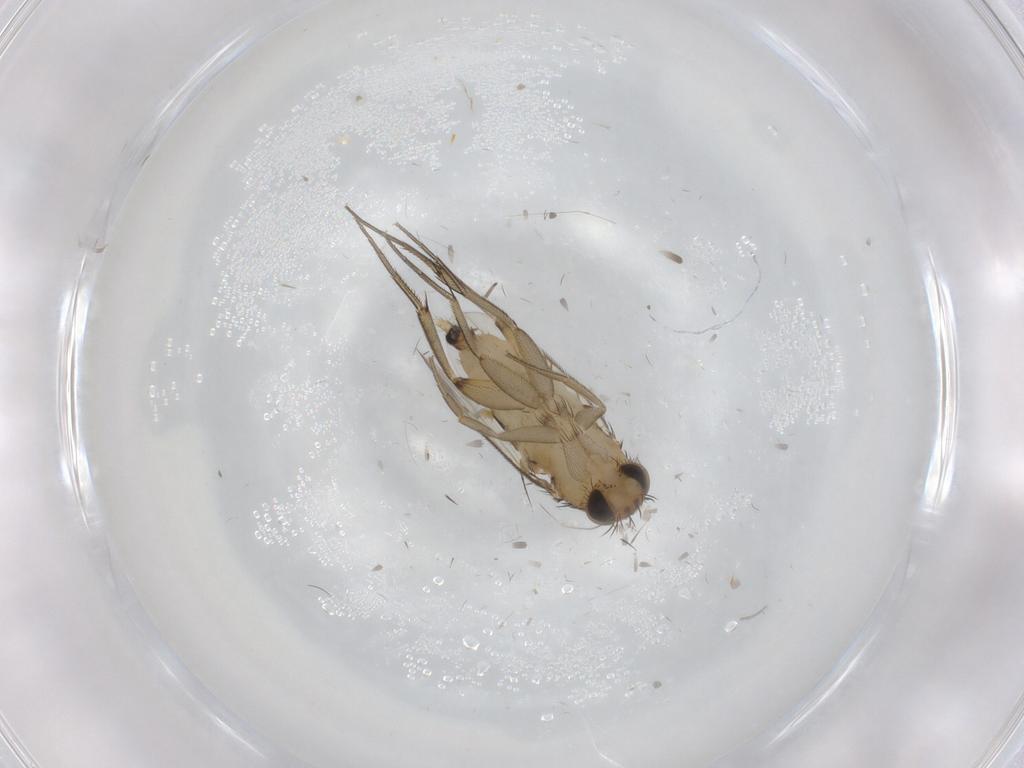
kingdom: Animalia
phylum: Arthropoda
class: Insecta
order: Diptera
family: Phoridae
